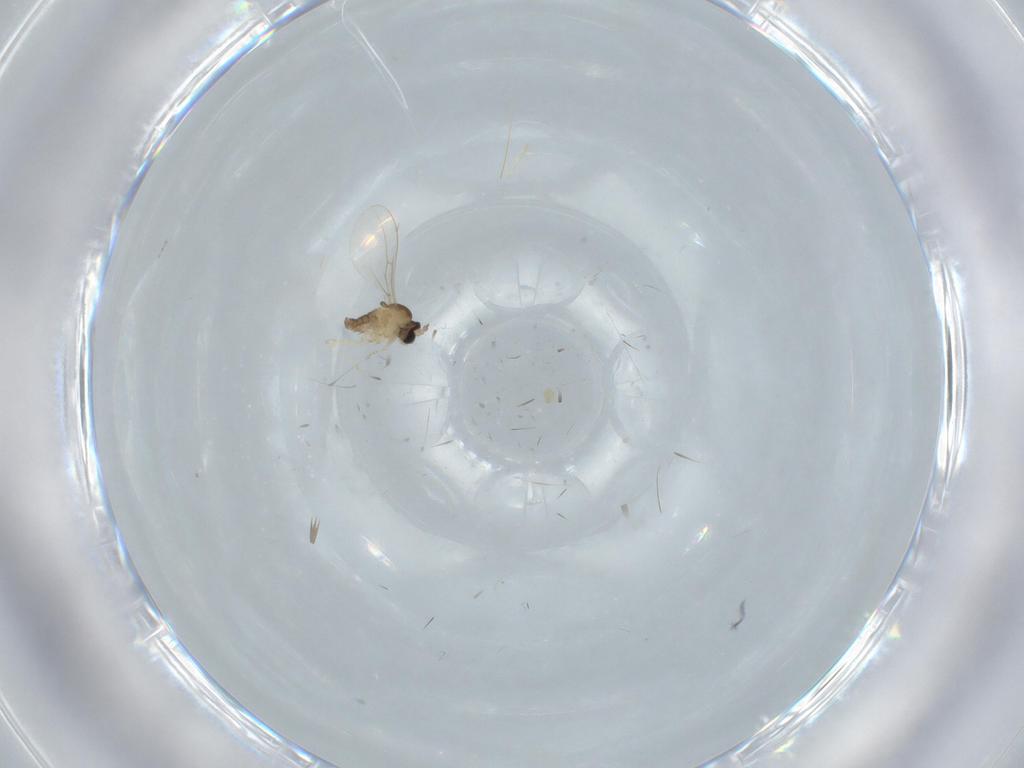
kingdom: Animalia
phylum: Arthropoda
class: Insecta
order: Diptera
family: Cecidomyiidae
